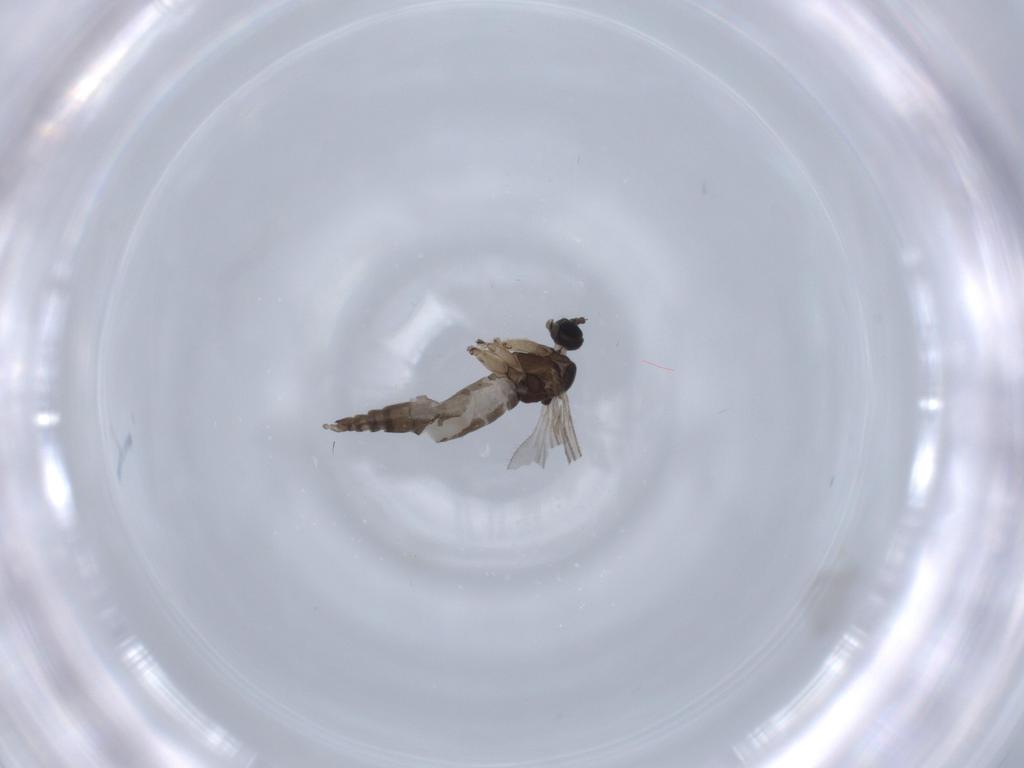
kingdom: Animalia
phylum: Arthropoda
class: Insecta
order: Diptera
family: Sciaridae
